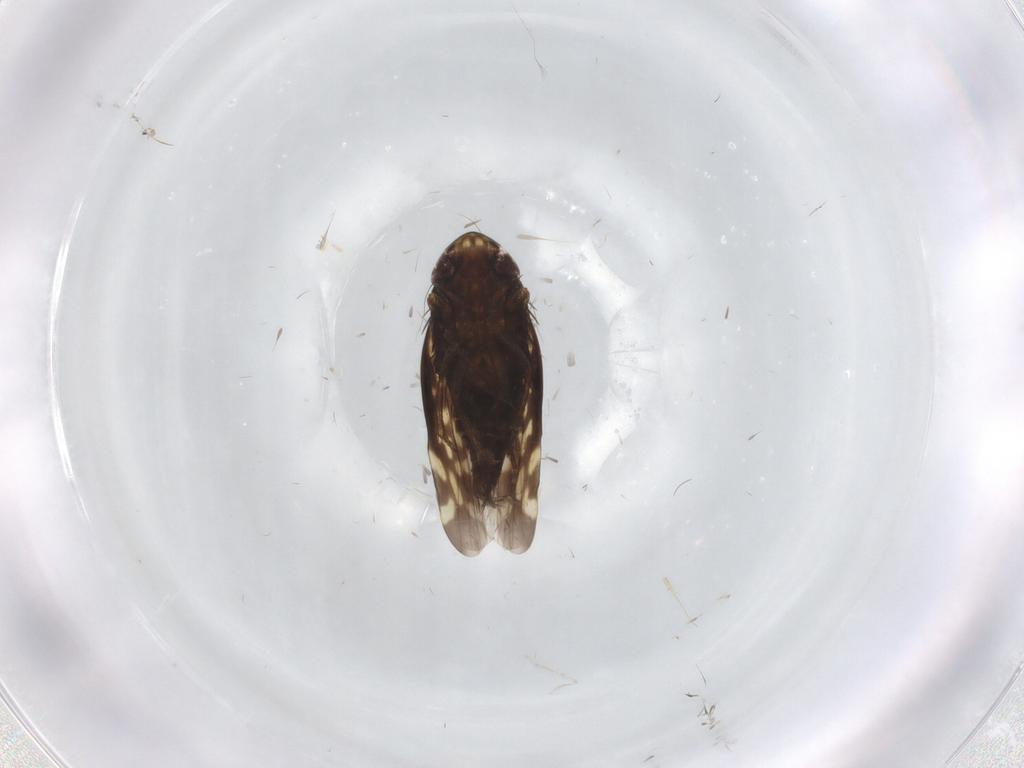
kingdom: Animalia
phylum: Arthropoda
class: Insecta
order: Hemiptera
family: Cicadellidae
